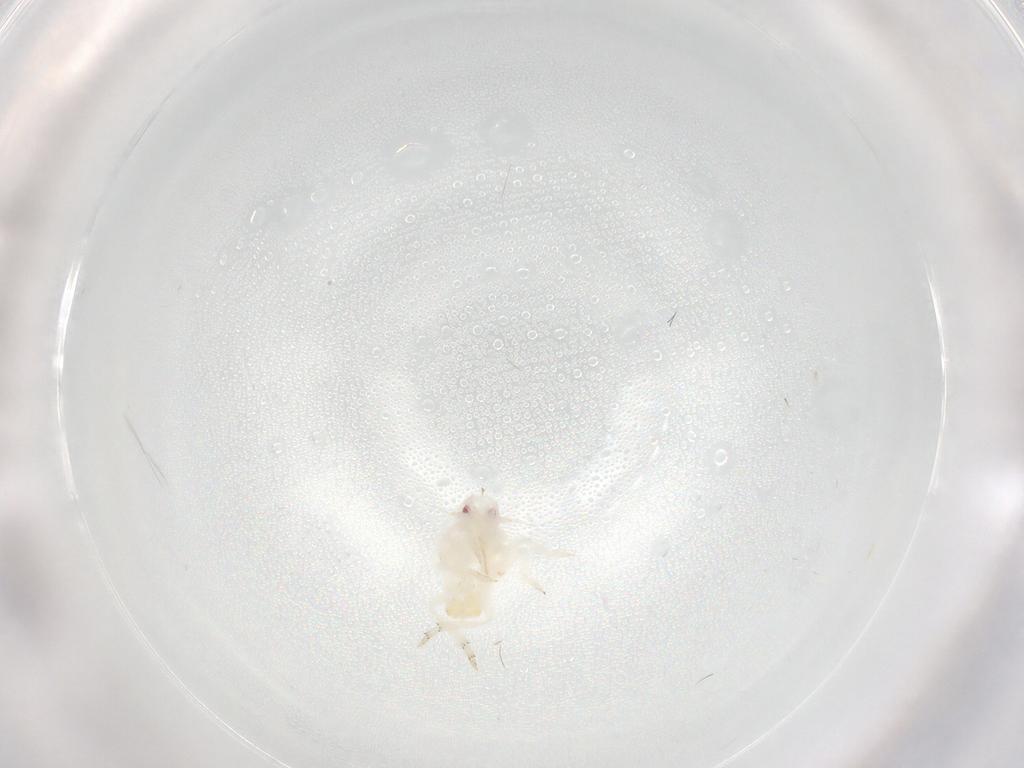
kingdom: Animalia
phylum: Arthropoda
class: Insecta
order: Hemiptera
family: Flatidae
